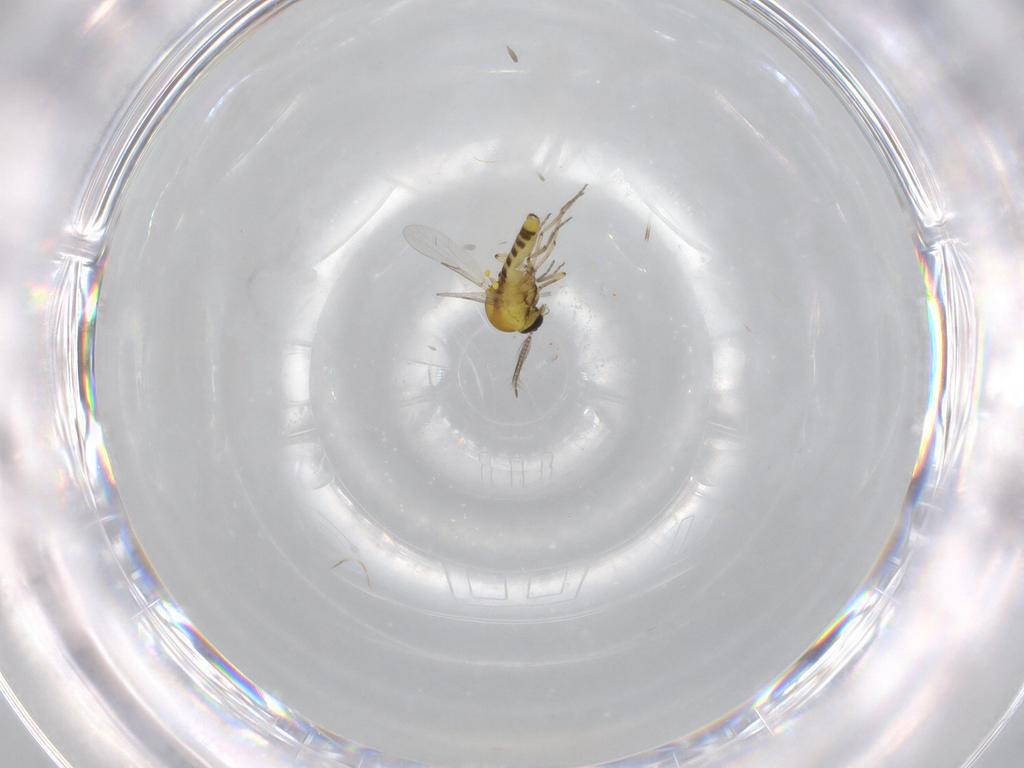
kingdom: Animalia
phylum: Arthropoda
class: Insecta
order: Diptera
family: Ceratopogonidae
